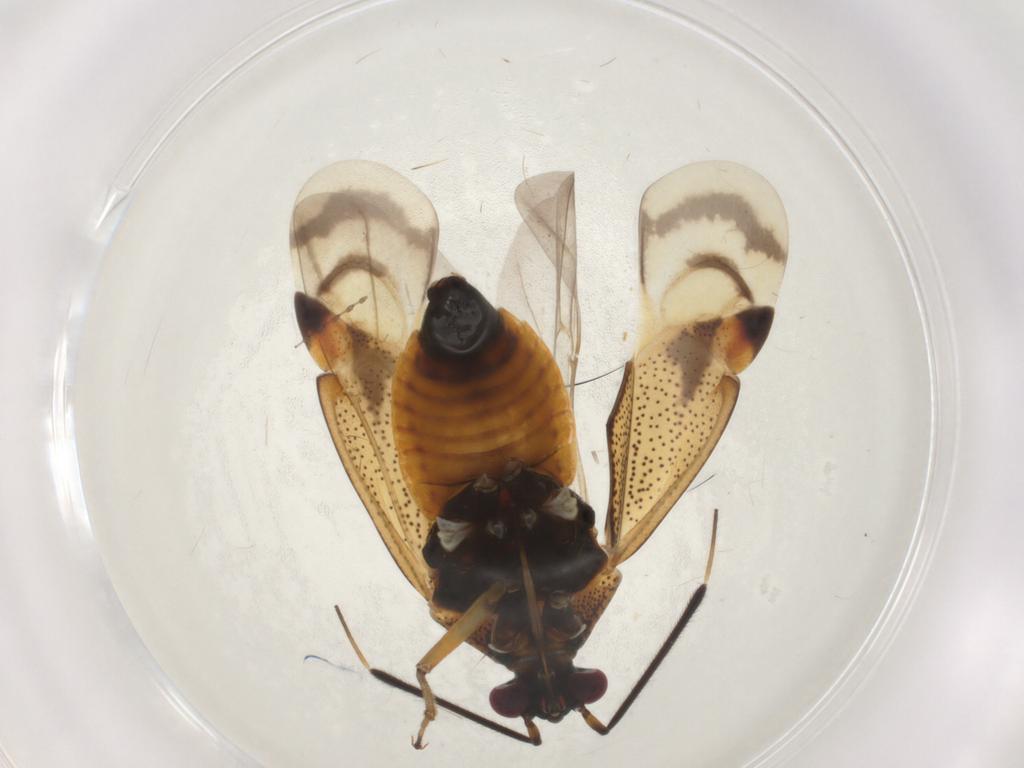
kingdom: Animalia
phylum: Arthropoda
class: Insecta
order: Hemiptera
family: Miridae
